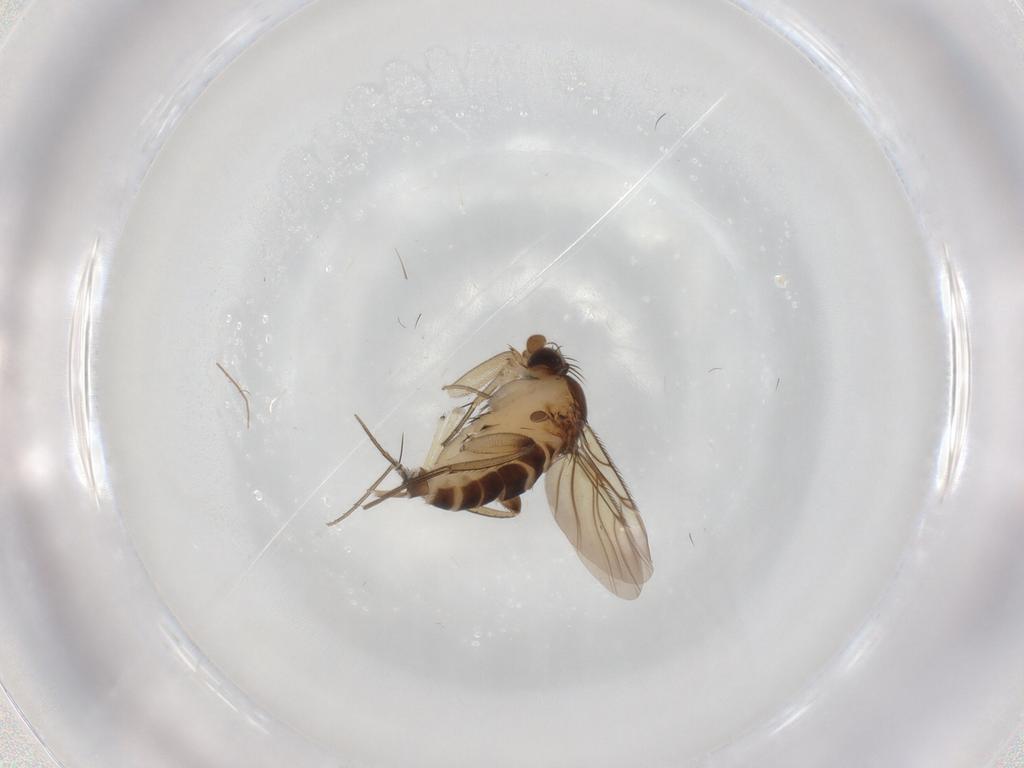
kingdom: Animalia
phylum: Arthropoda
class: Insecta
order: Diptera
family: Phoridae
